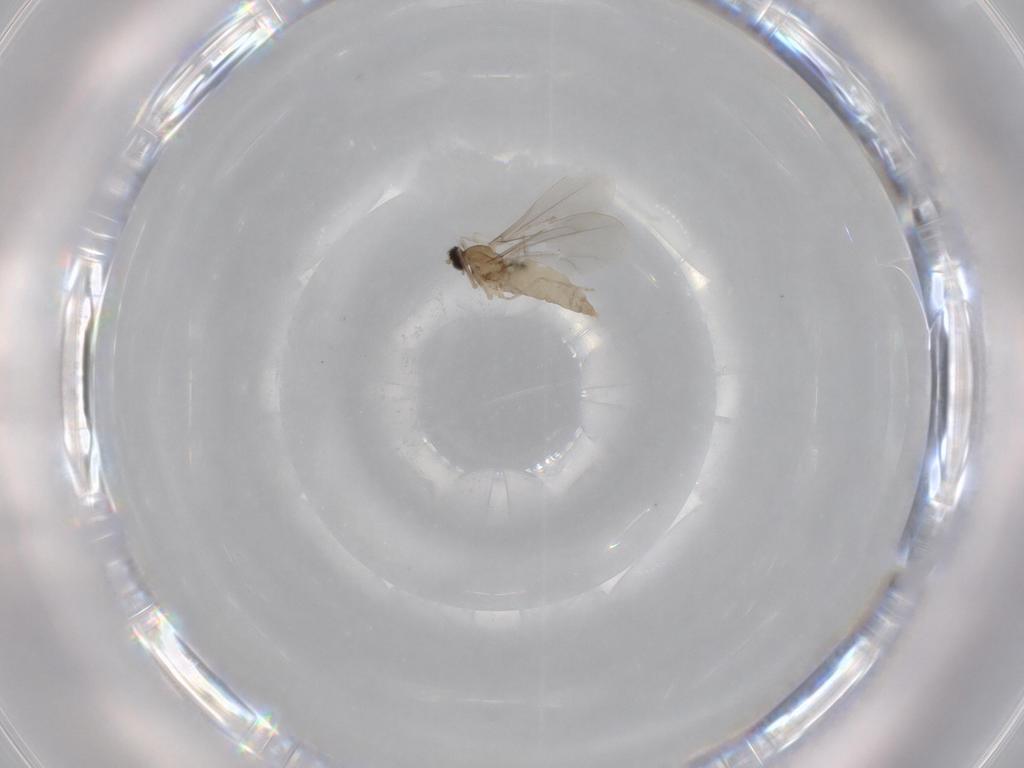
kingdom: Animalia
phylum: Arthropoda
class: Insecta
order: Diptera
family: Cecidomyiidae
